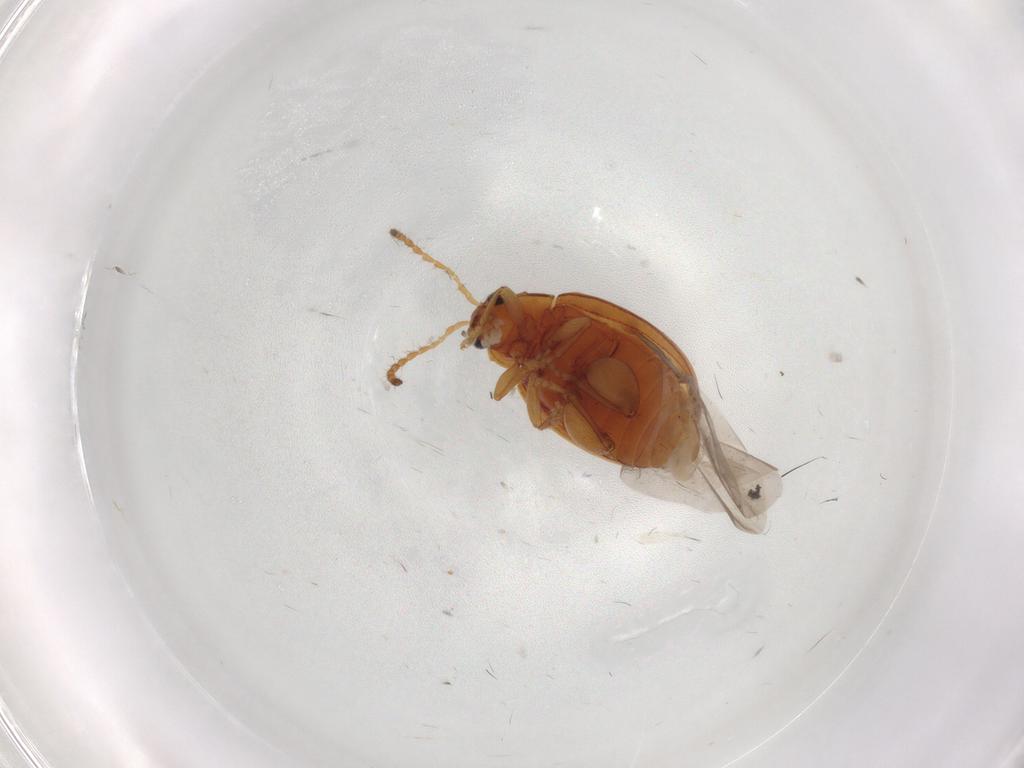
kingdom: Animalia
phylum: Arthropoda
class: Insecta
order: Coleoptera
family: Chrysomelidae
